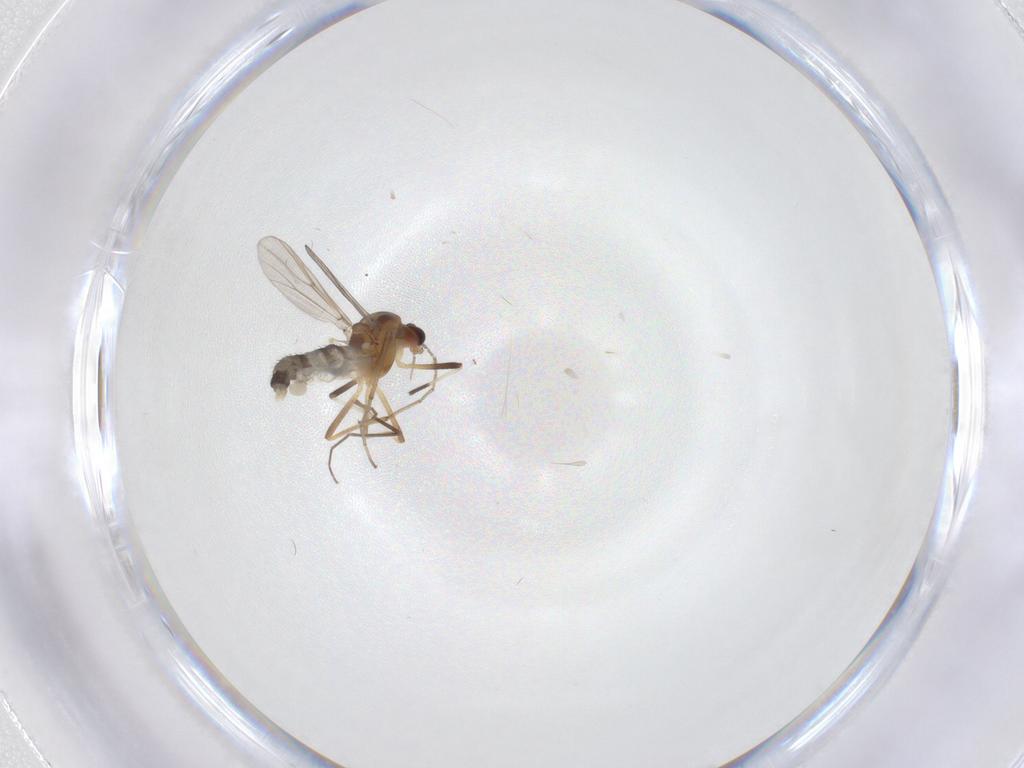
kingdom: Animalia
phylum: Arthropoda
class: Insecta
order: Diptera
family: Chironomidae
